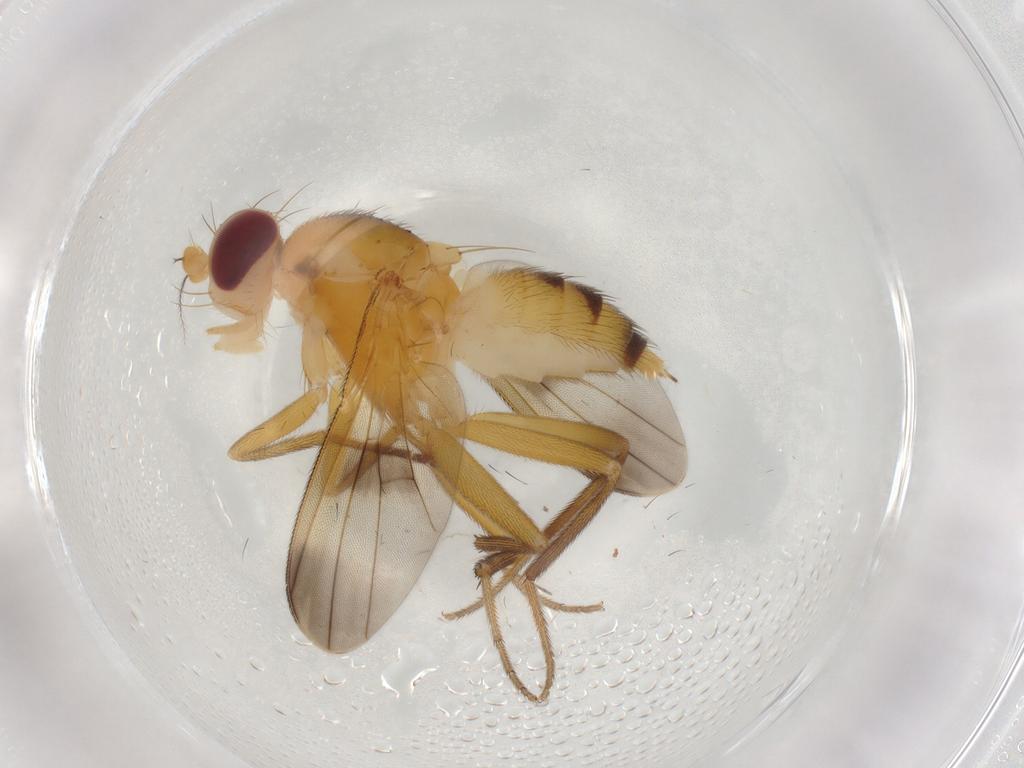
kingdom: Animalia
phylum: Arthropoda
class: Insecta
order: Diptera
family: Clusiidae
